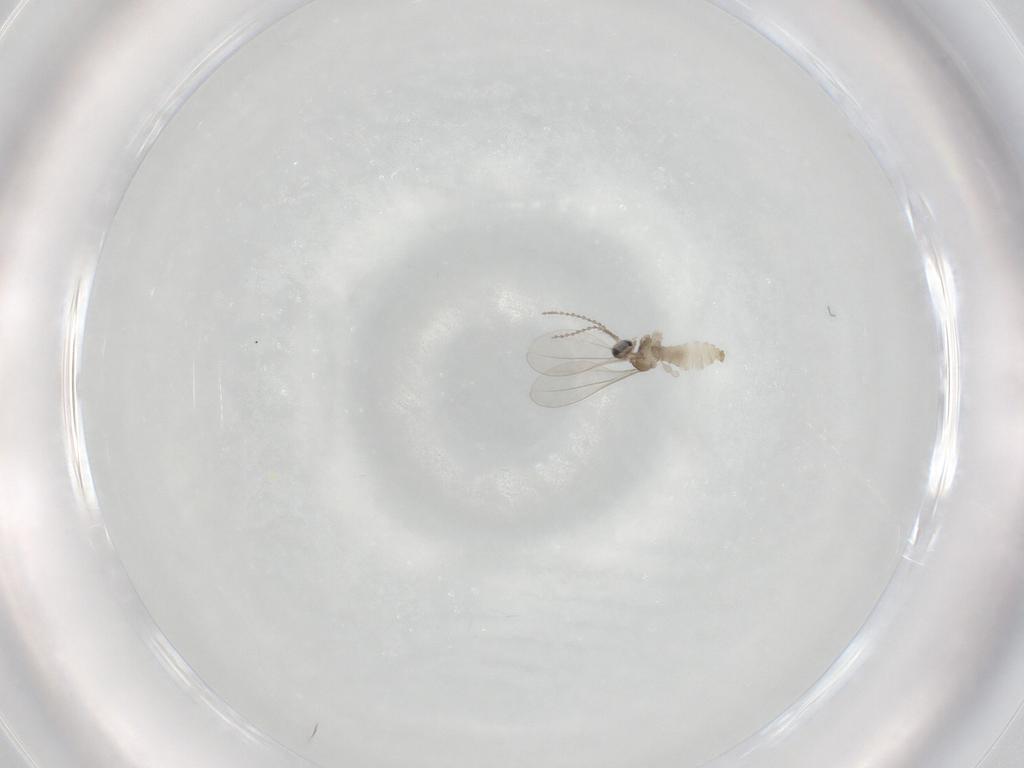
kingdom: Animalia
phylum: Arthropoda
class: Insecta
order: Diptera
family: Cecidomyiidae
